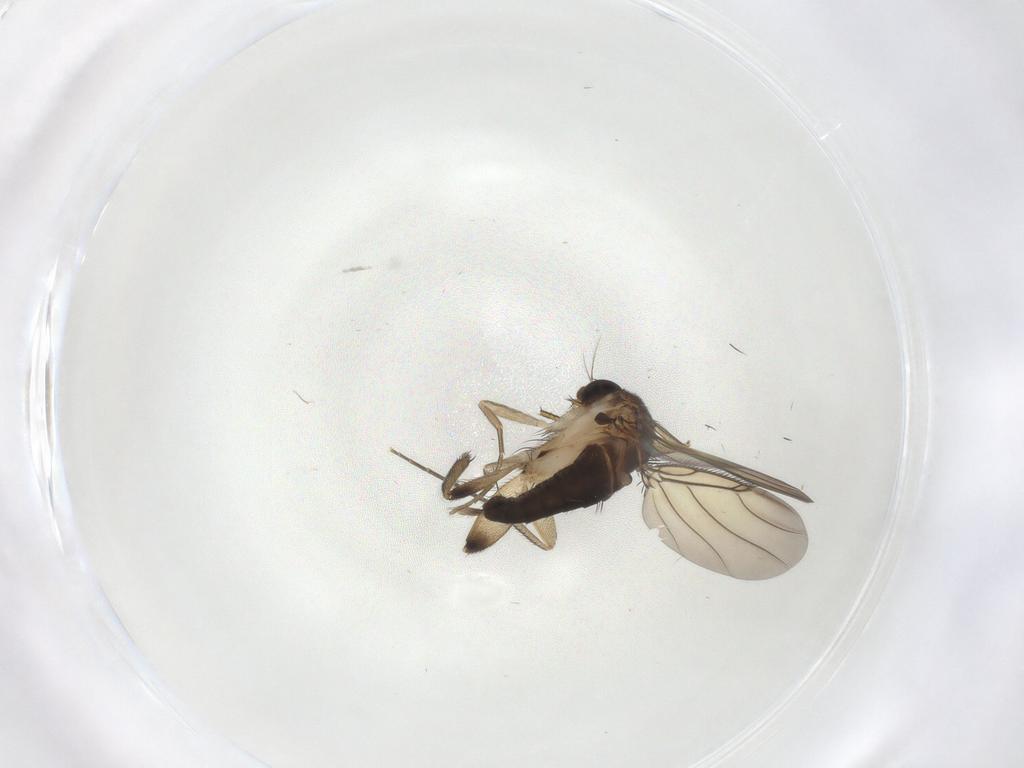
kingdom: Animalia
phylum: Arthropoda
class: Insecta
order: Diptera
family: Phoridae
